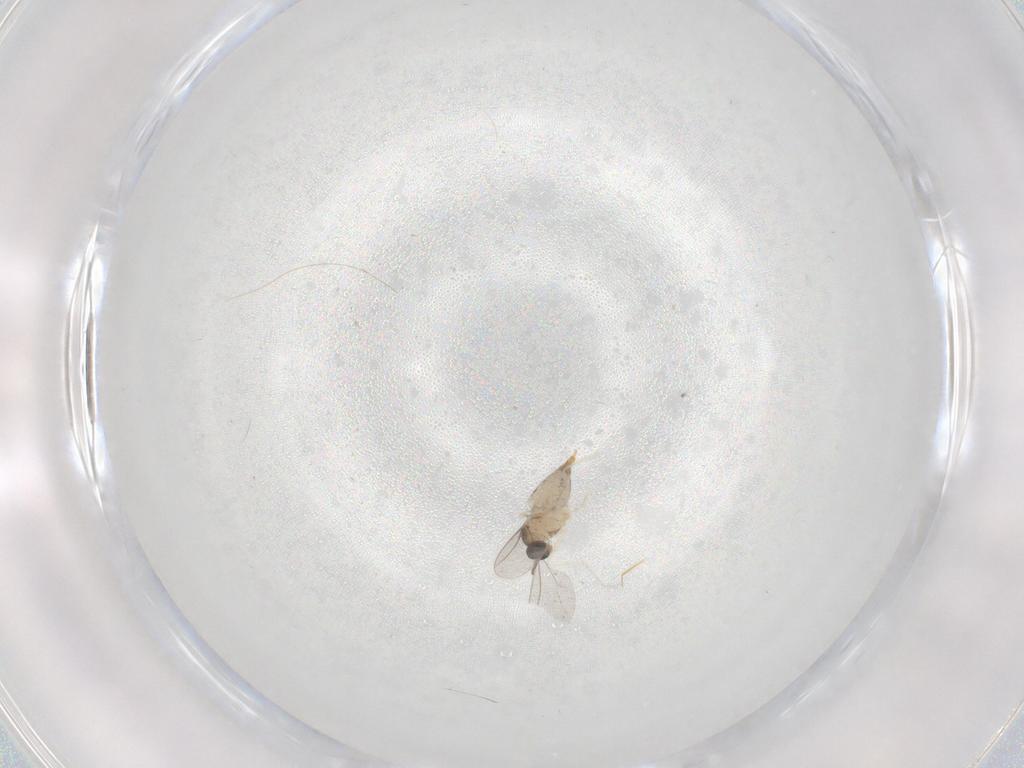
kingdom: Animalia
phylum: Arthropoda
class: Insecta
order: Diptera
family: Cecidomyiidae
